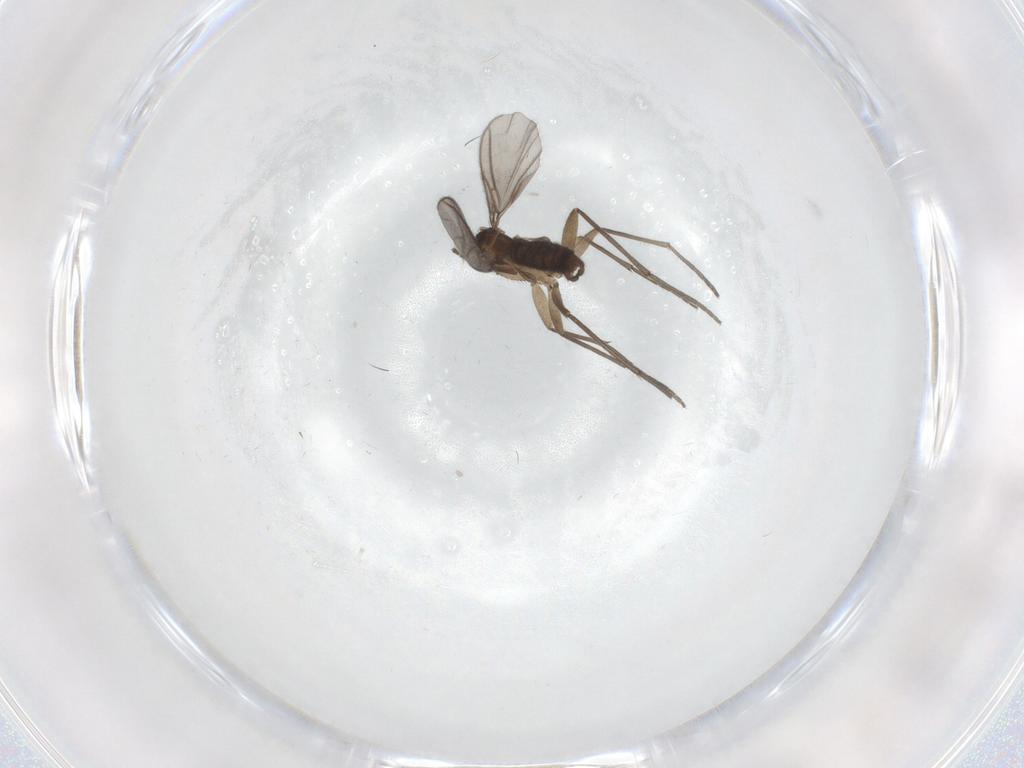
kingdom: Animalia
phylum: Arthropoda
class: Insecta
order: Diptera
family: Sciaridae
